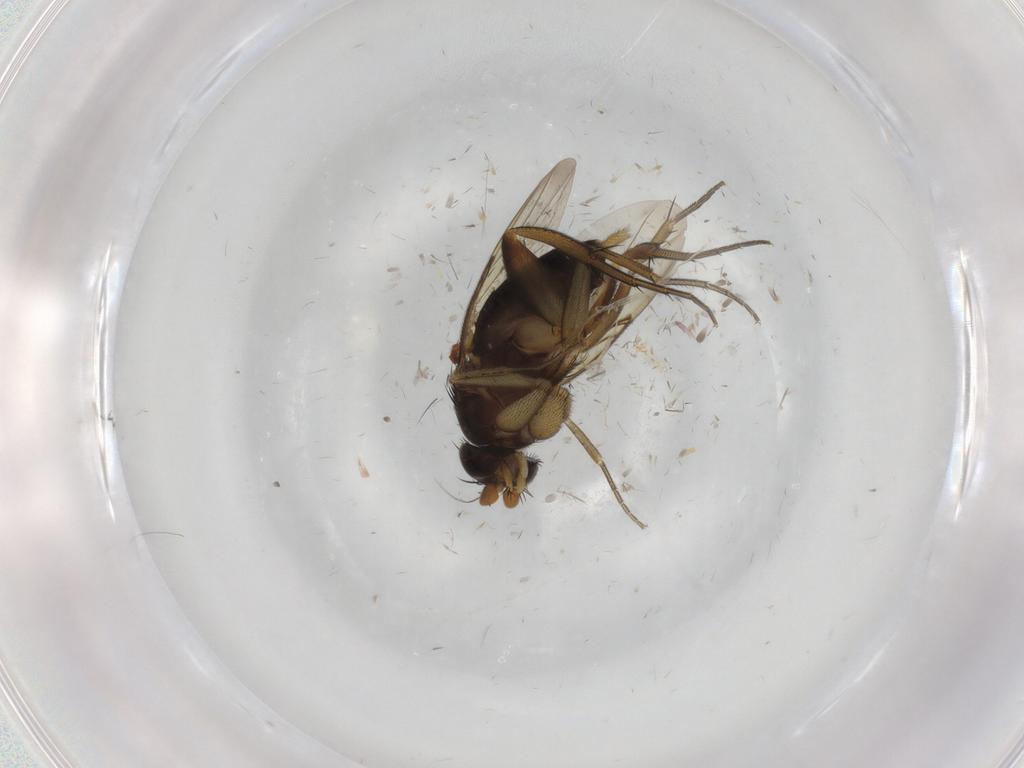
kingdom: Animalia
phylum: Arthropoda
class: Insecta
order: Diptera
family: Phoridae
